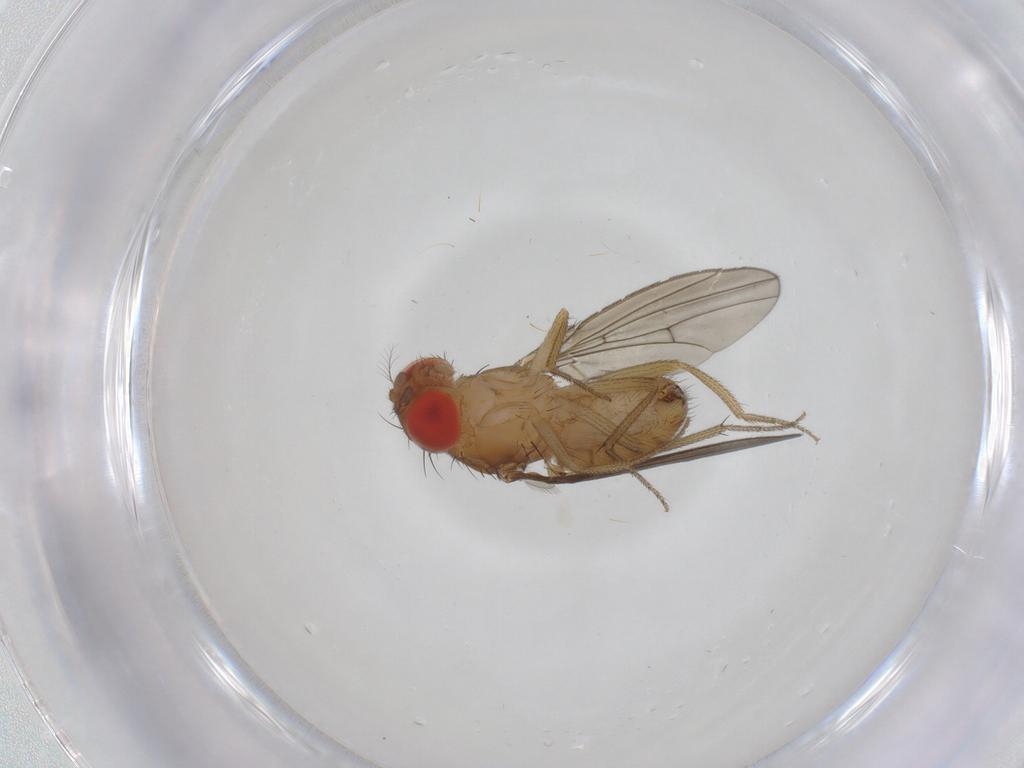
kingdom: Animalia
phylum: Arthropoda
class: Insecta
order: Diptera
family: Drosophilidae
